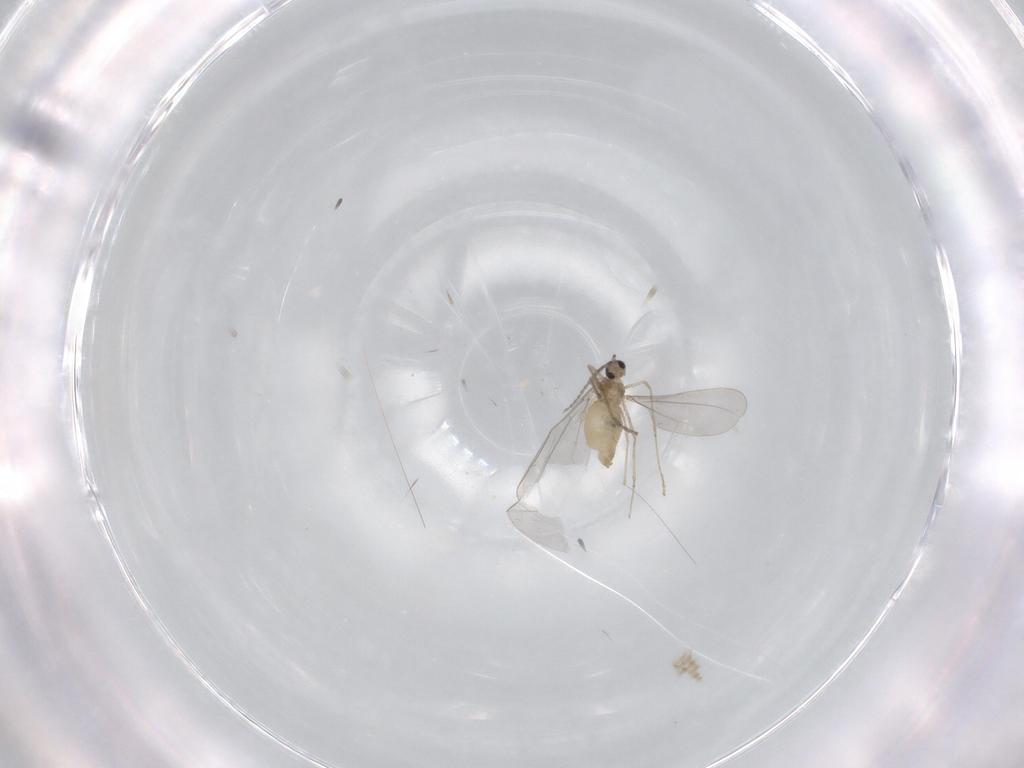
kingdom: Animalia
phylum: Arthropoda
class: Insecta
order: Diptera
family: Cecidomyiidae
